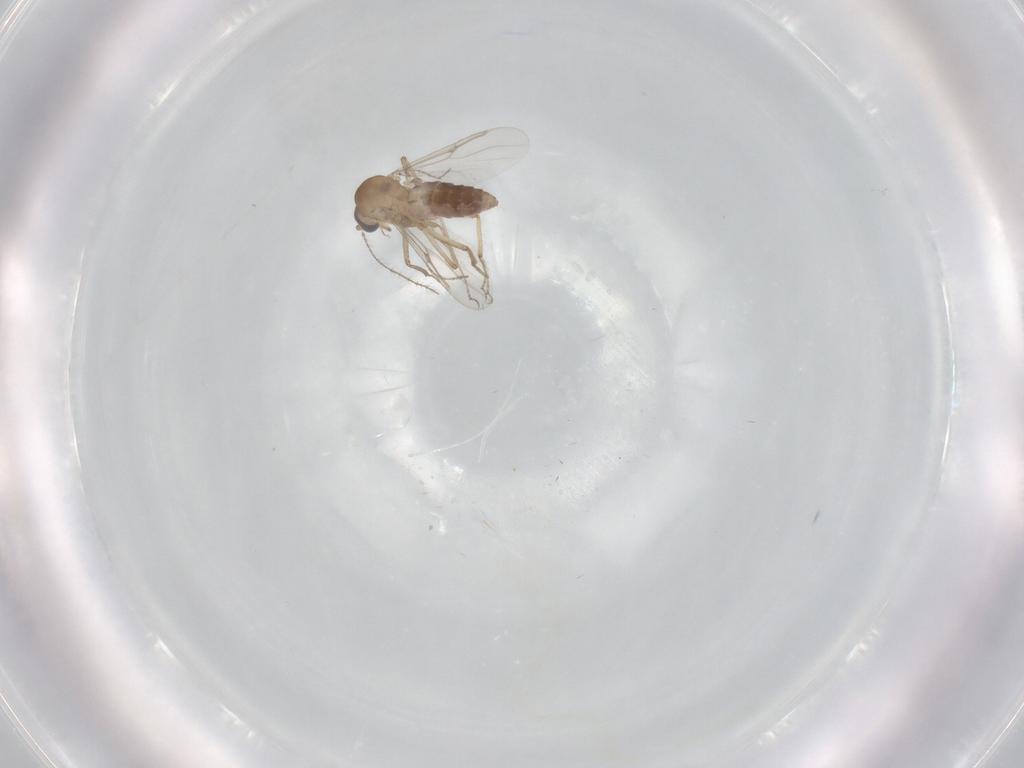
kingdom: Animalia
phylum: Arthropoda
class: Insecta
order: Diptera
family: Ceratopogonidae
